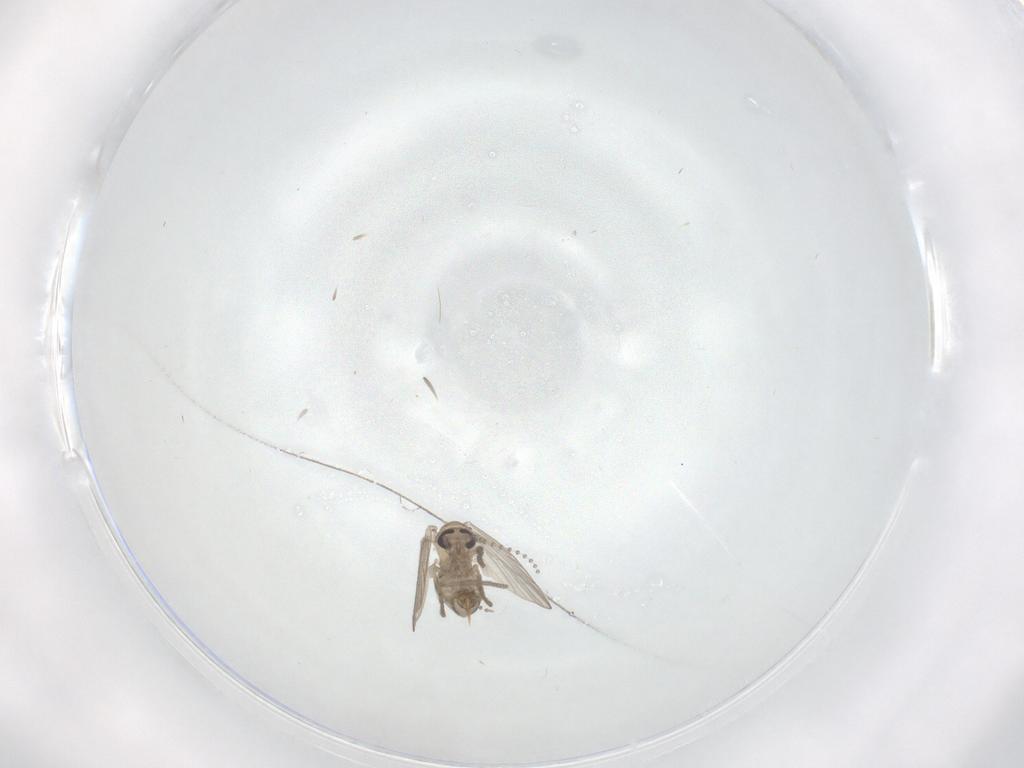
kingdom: Animalia
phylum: Arthropoda
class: Insecta
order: Diptera
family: Psychodidae
